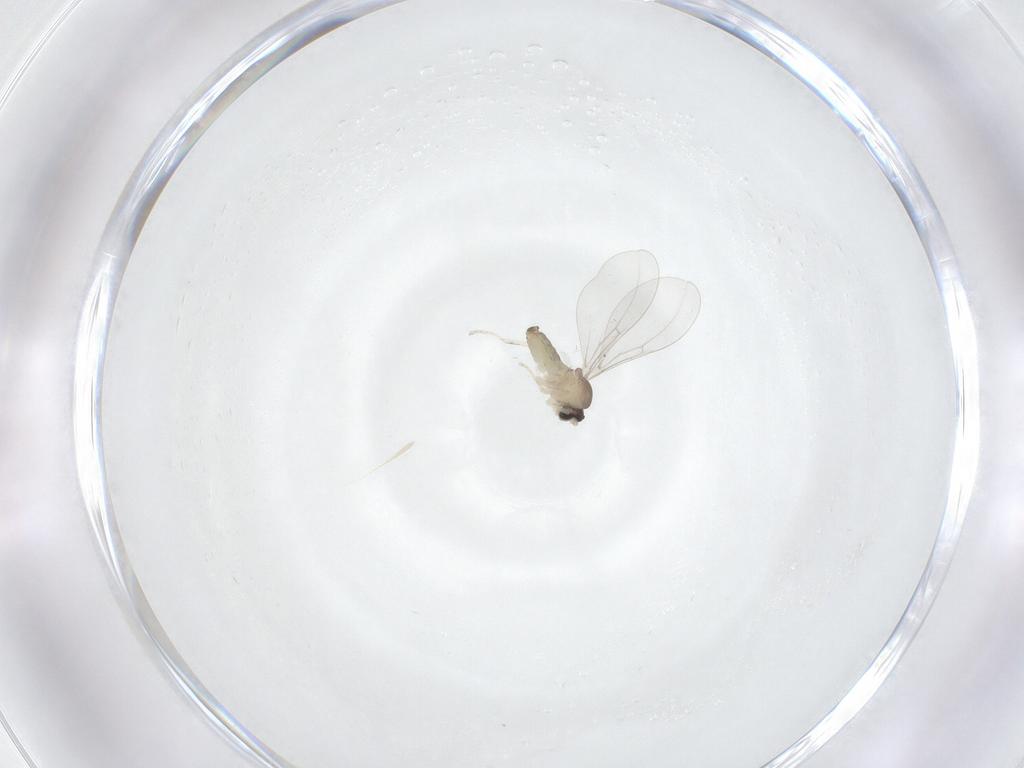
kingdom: Animalia
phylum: Arthropoda
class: Insecta
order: Diptera
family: Cecidomyiidae
